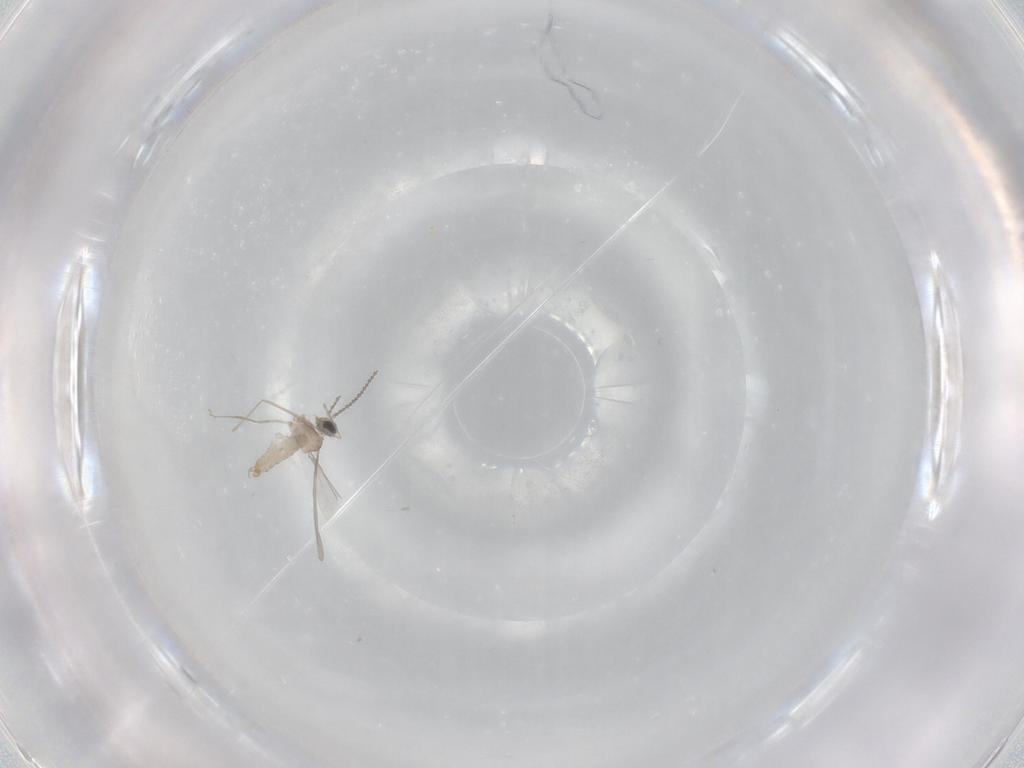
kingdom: Animalia
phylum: Arthropoda
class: Insecta
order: Diptera
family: Cecidomyiidae
